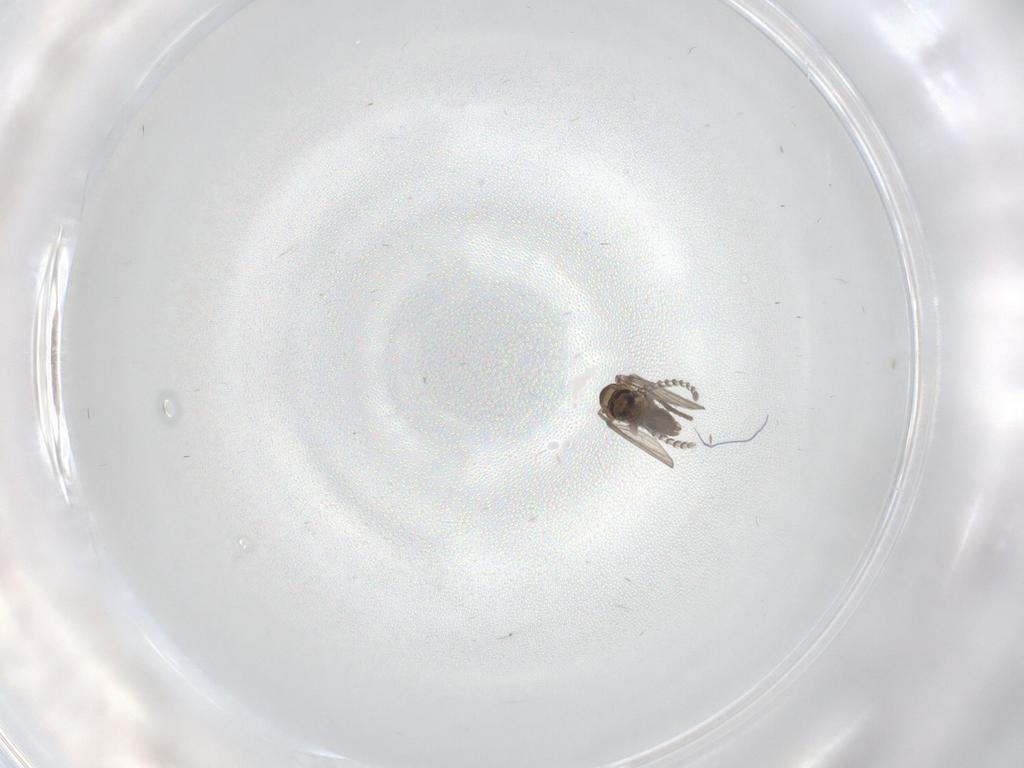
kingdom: Animalia
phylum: Arthropoda
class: Insecta
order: Diptera
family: Psychodidae
